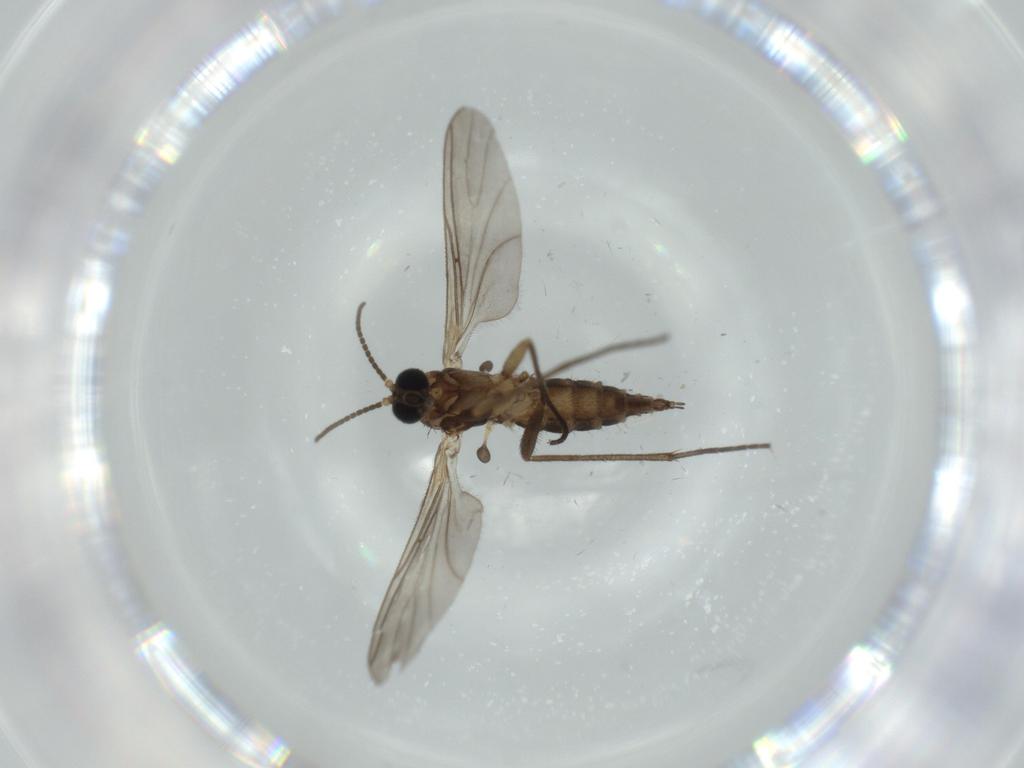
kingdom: Animalia
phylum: Arthropoda
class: Insecta
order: Diptera
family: Sciaridae
